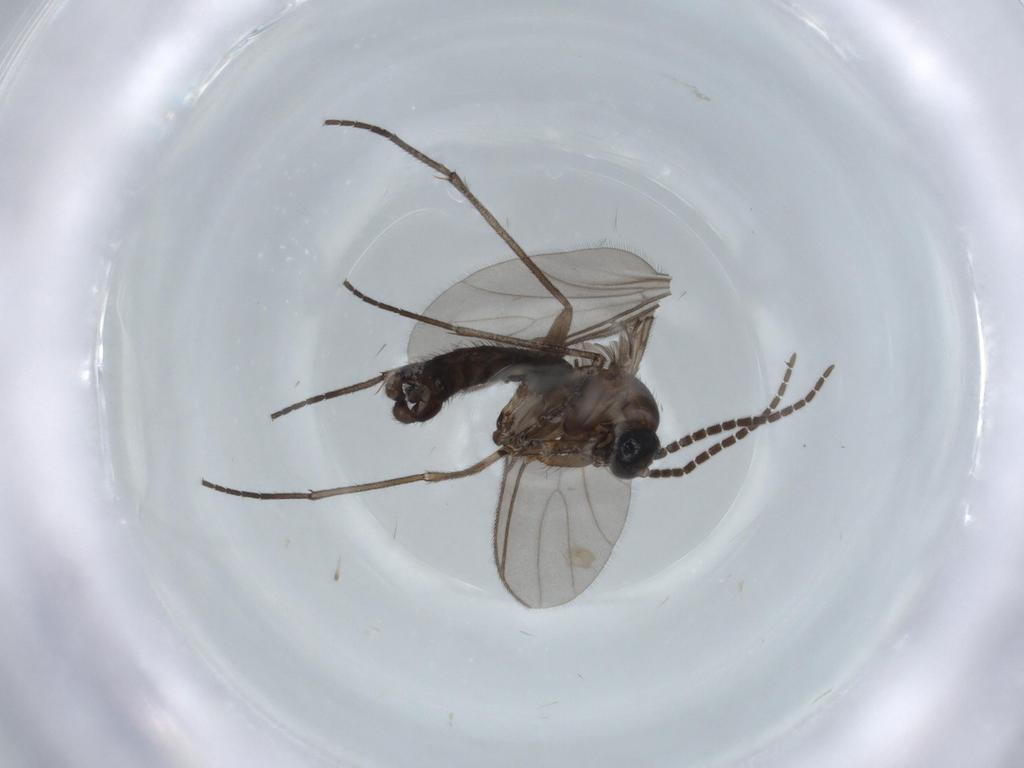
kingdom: Animalia
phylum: Arthropoda
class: Insecta
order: Diptera
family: Sciaridae
